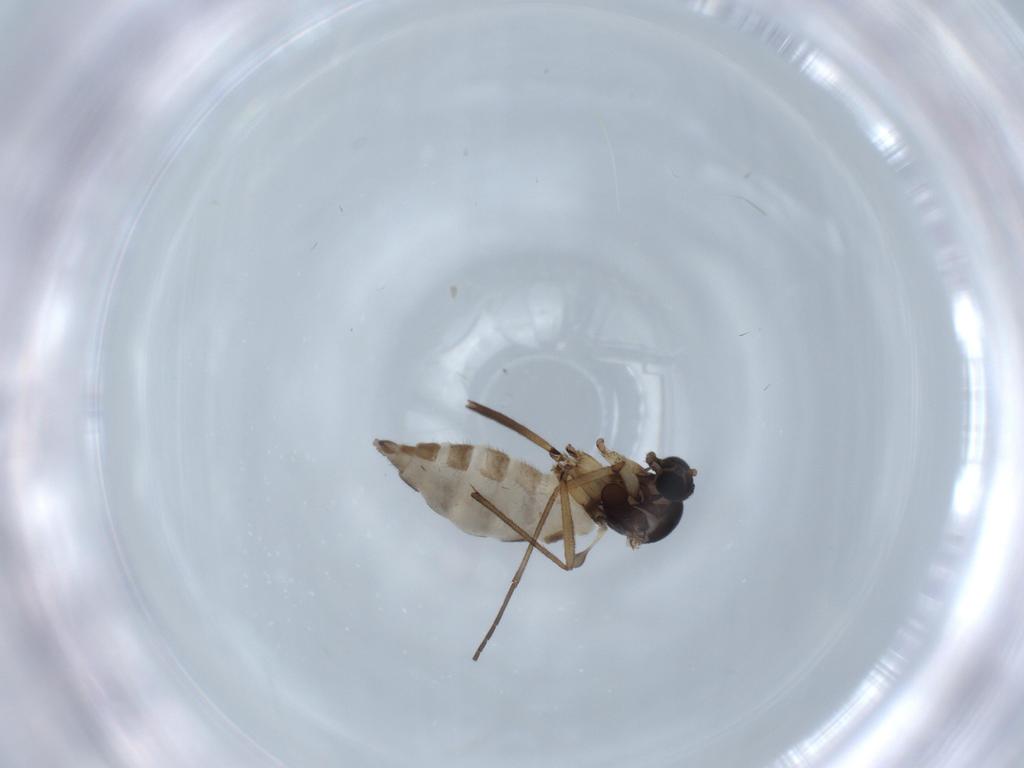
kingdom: Animalia
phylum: Arthropoda
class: Insecta
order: Diptera
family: Sciaridae
